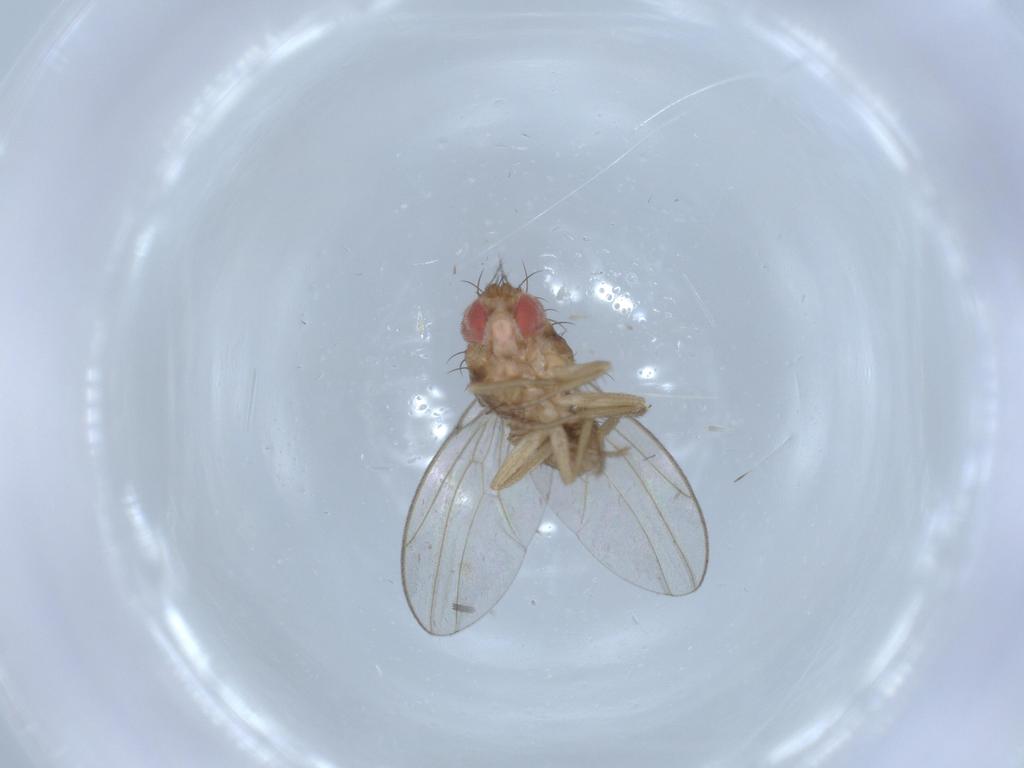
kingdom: Animalia
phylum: Arthropoda
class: Insecta
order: Diptera
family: Drosophilidae
